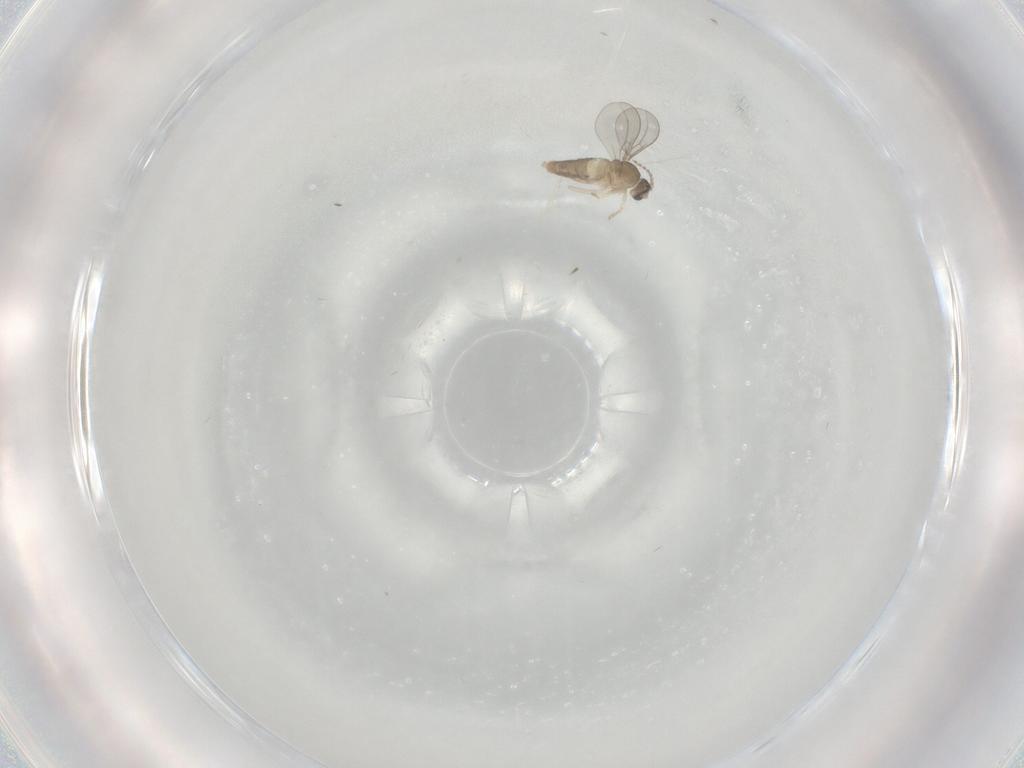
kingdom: Animalia
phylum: Arthropoda
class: Insecta
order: Diptera
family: Cecidomyiidae
